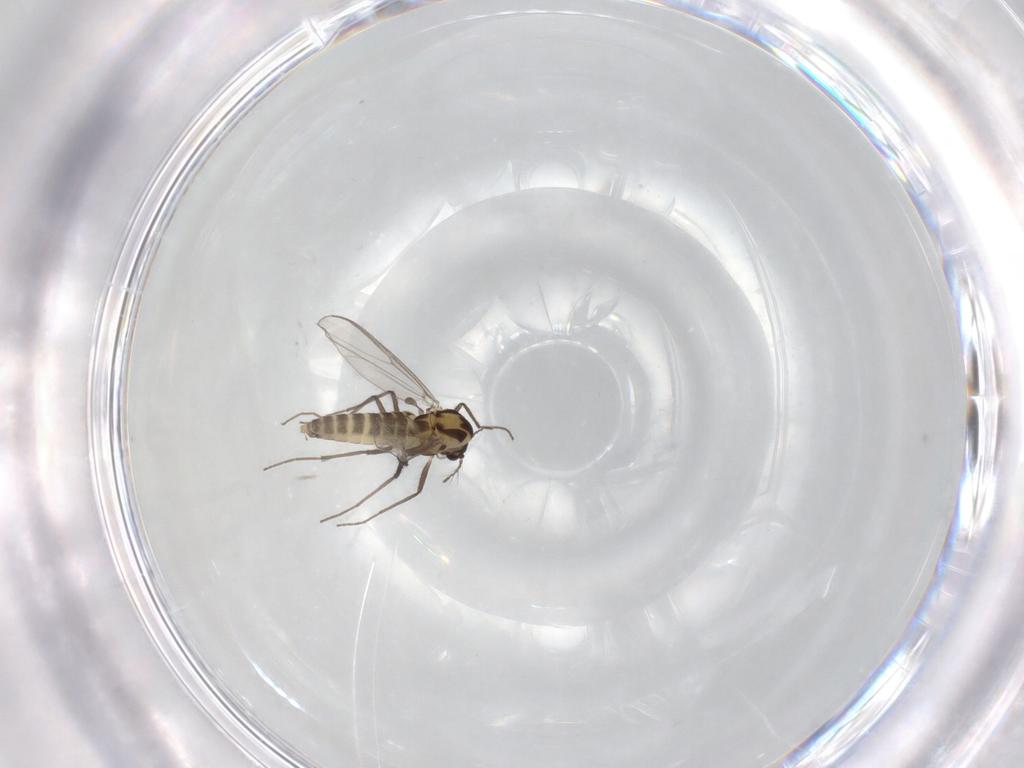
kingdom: Animalia
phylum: Arthropoda
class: Insecta
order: Diptera
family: Chironomidae
